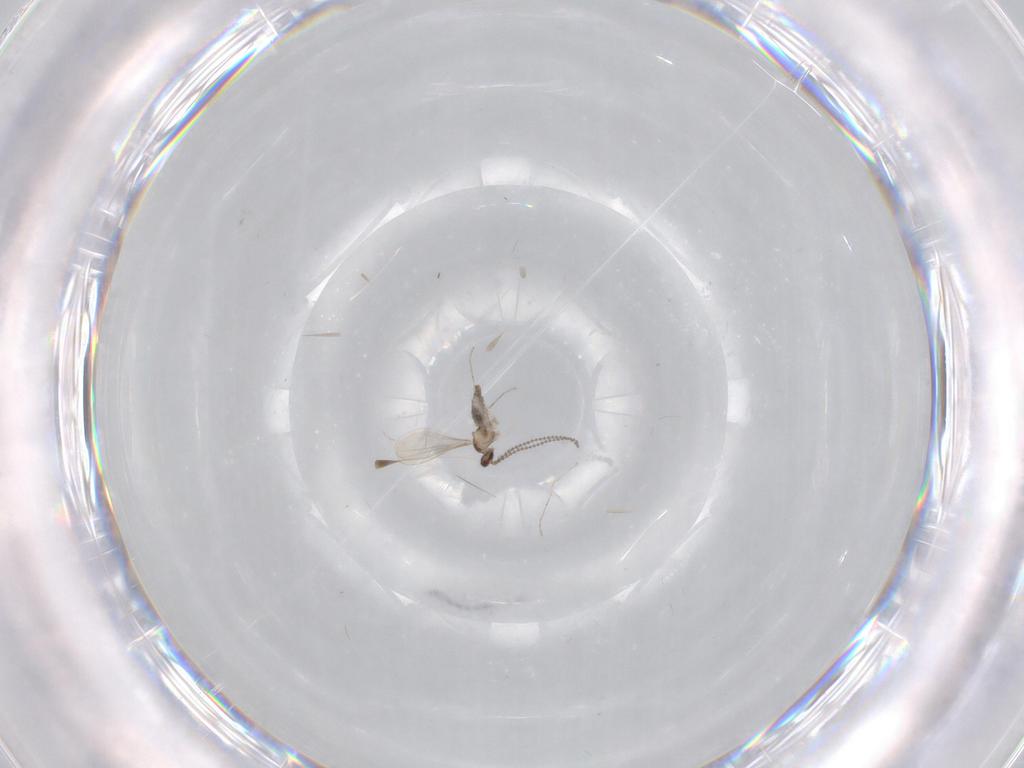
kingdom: Animalia
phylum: Arthropoda
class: Insecta
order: Diptera
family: Cecidomyiidae
